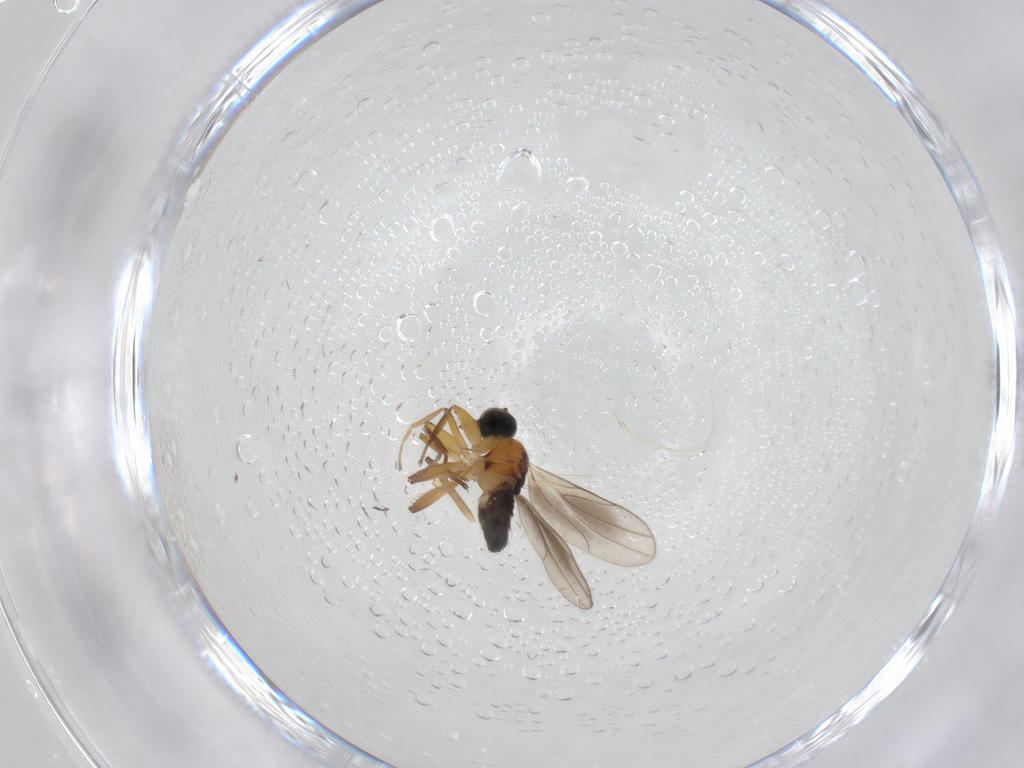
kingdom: Animalia
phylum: Arthropoda
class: Insecta
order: Diptera
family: Hybotidae
